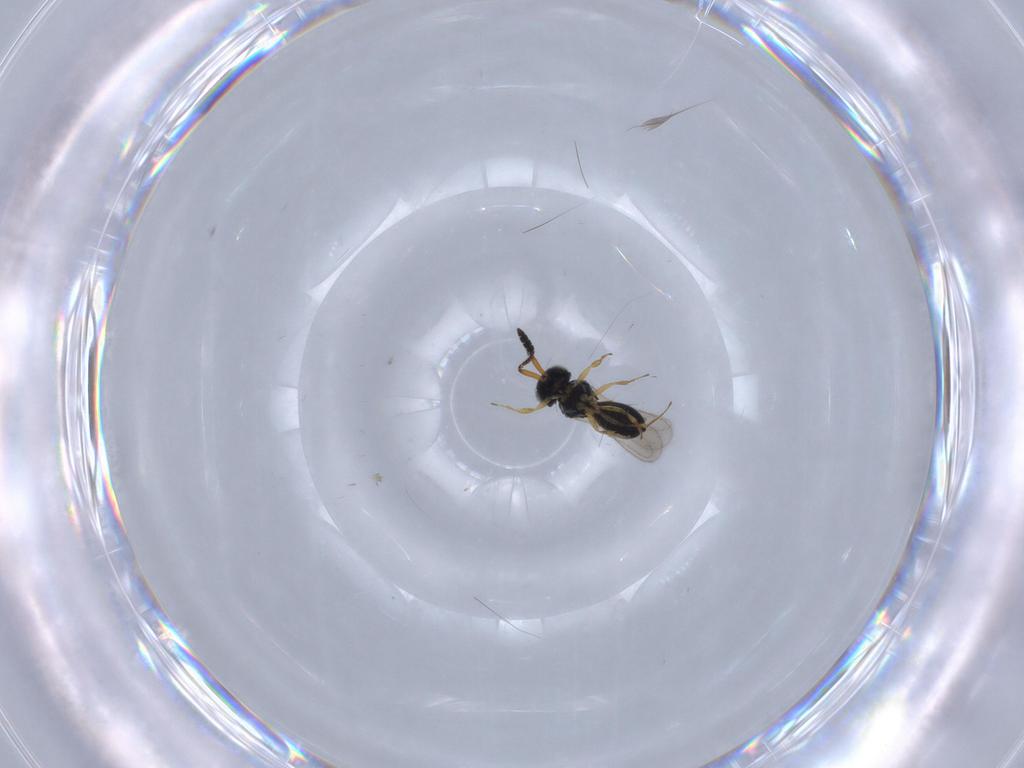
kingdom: Animalia
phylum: Arthropoda
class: Insecta
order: Hymenoptera
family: Scelionidae
